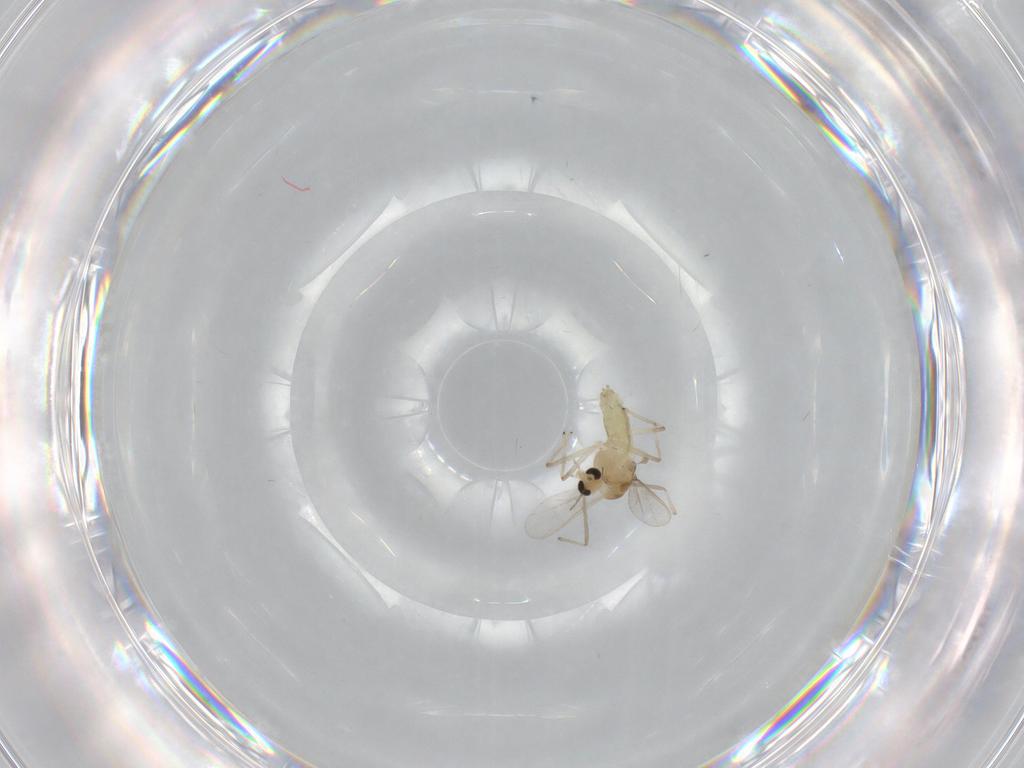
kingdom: Animalia
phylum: Arthropoda
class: Insecta
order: Diptera
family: Chironomidae
